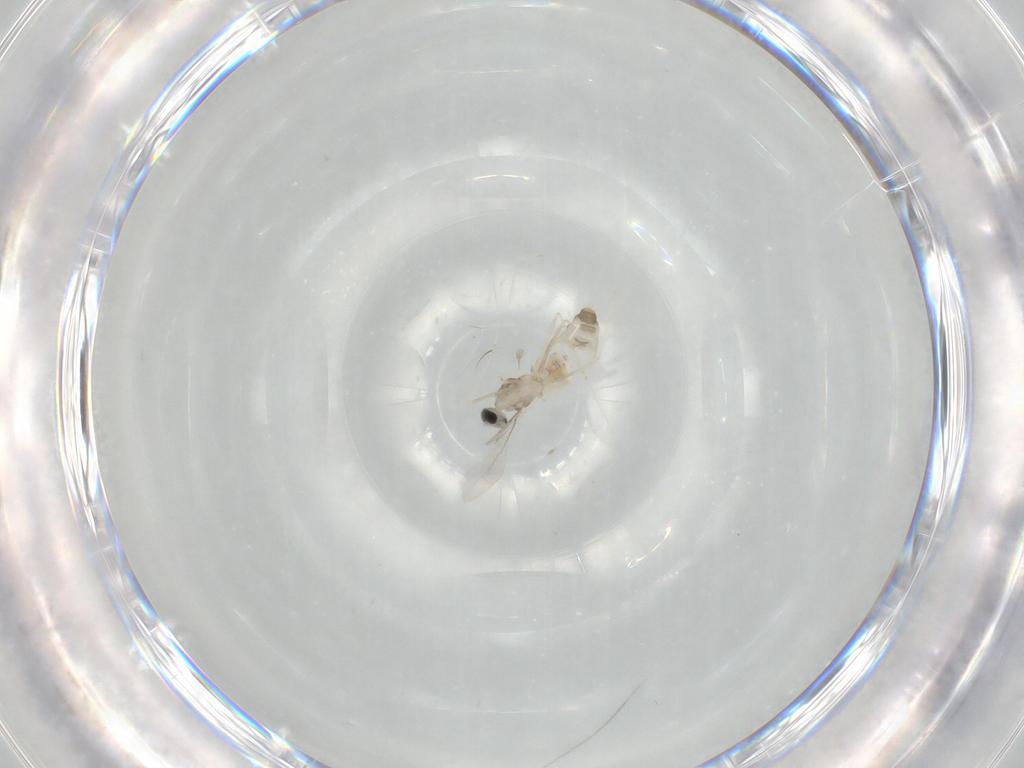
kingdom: Animalia
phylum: Arthropoda
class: Insecta
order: Diptera
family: Cecidomyiidae
